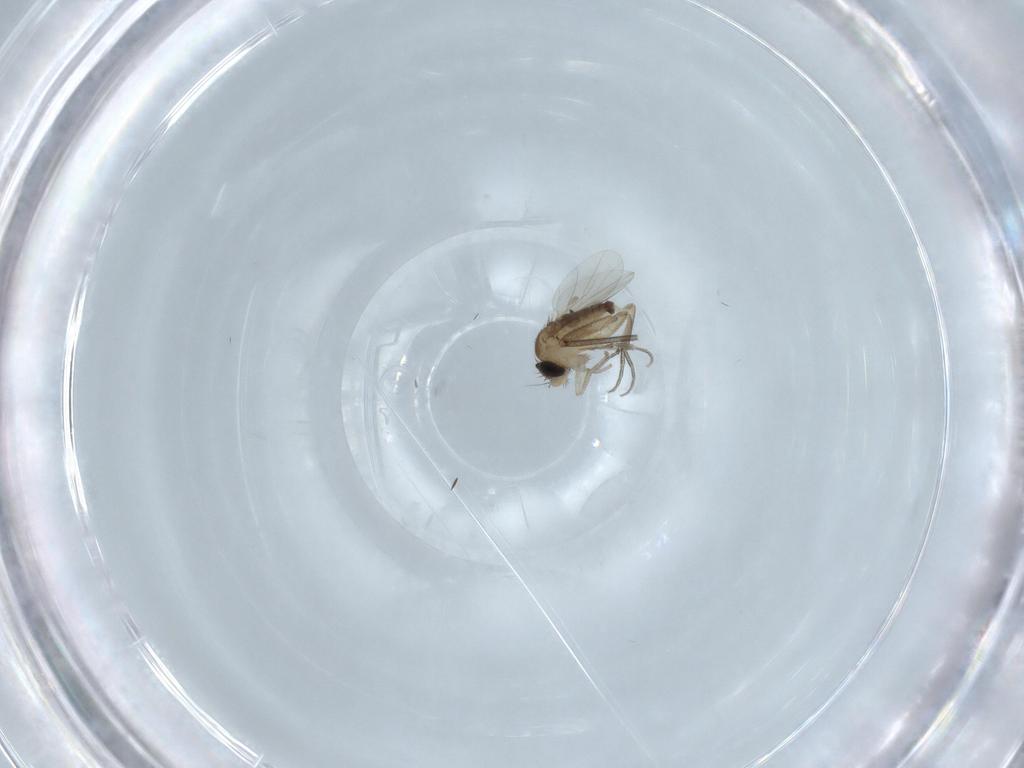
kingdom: Animalia
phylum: Arthropoda
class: Insecta
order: Diptera
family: Sciaridae
